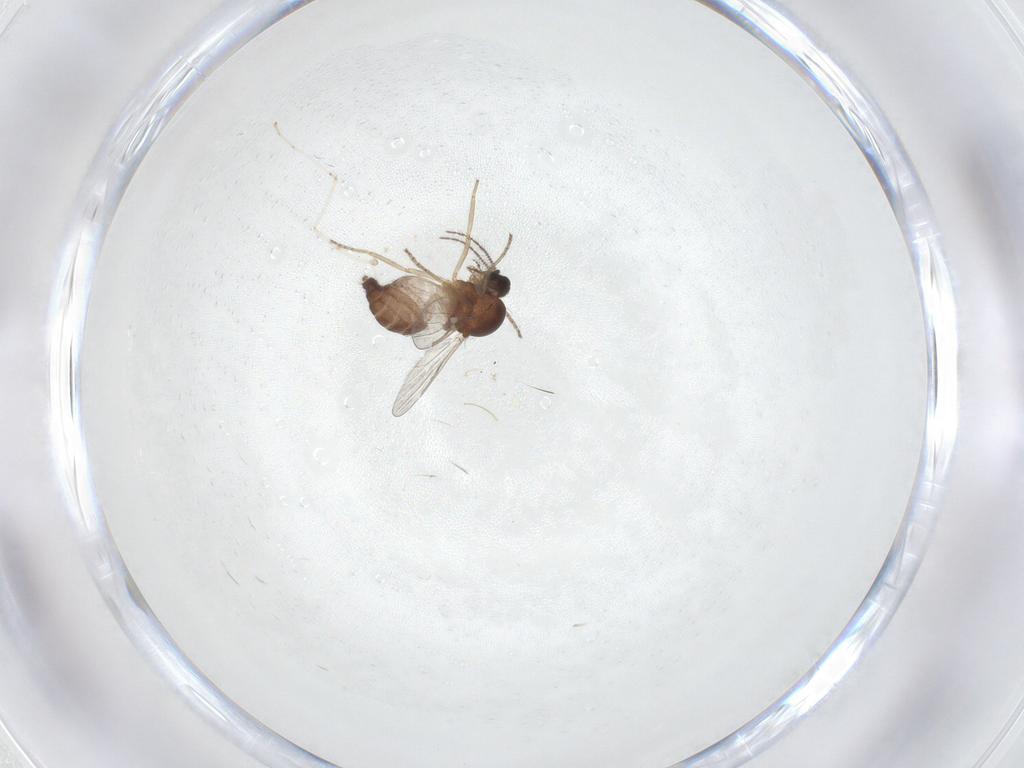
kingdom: Animalia
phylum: Arthropoda
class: Insecta
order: Diptera
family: Ceratopogonidae
